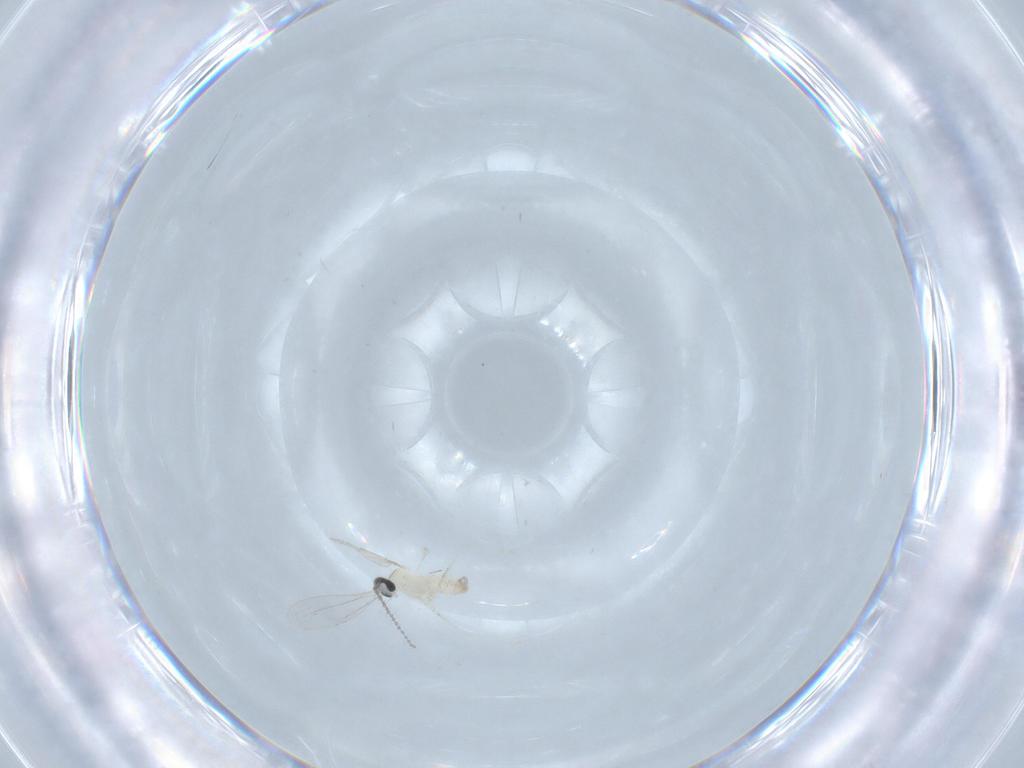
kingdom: Animalia
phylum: Arthropoda
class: Insecta
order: Diptera
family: Cecidomyiidae
